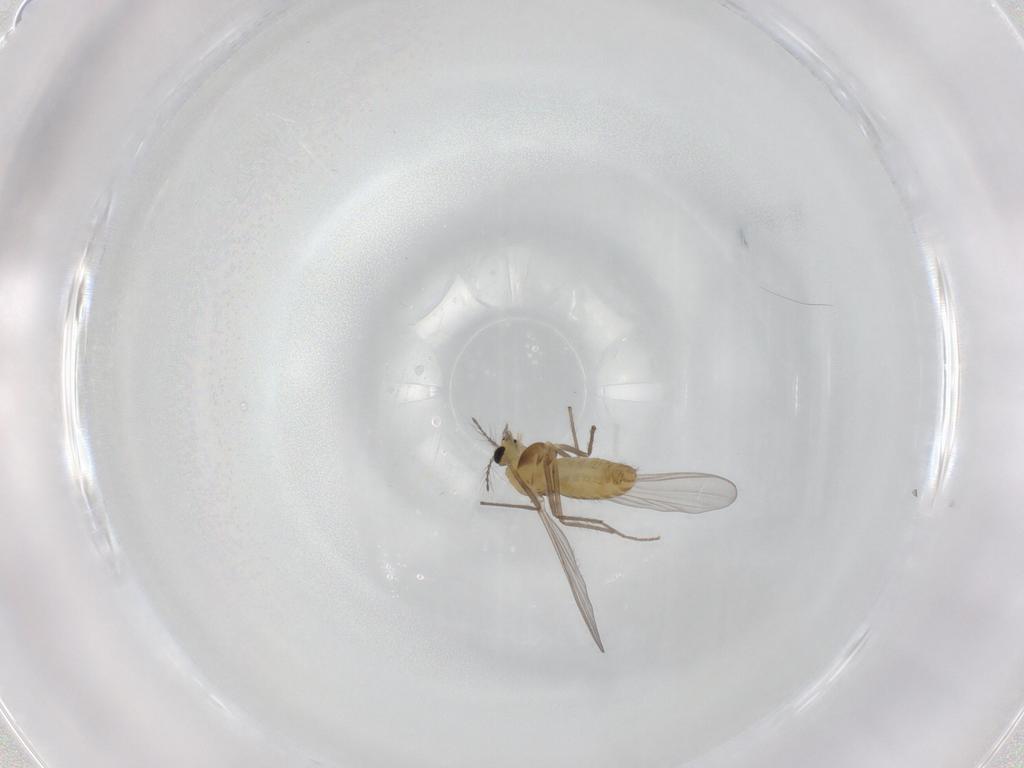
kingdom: Animalia
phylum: Arthropoda
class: Insecta
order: Diptera
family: Chironomidae
